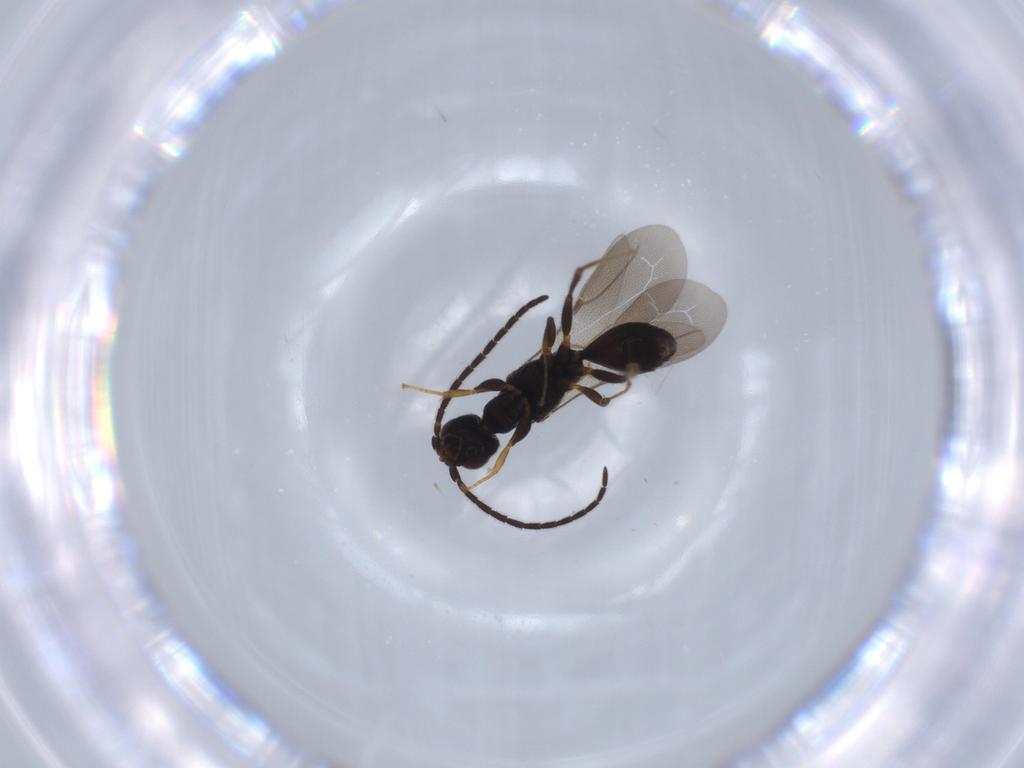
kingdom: Animalia
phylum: Arthropoda
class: Insecta
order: Hymenoptera
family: Bethylidae
